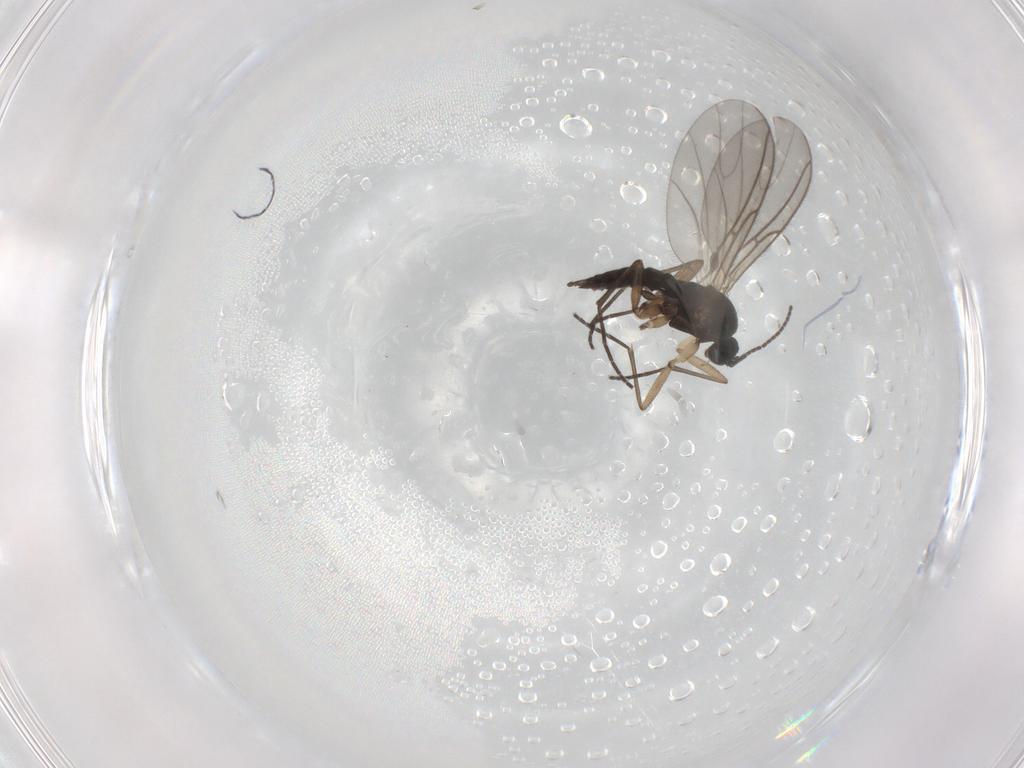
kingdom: Animalia
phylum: Arthropoda
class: Insecta
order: Diptera
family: Sciaridae
